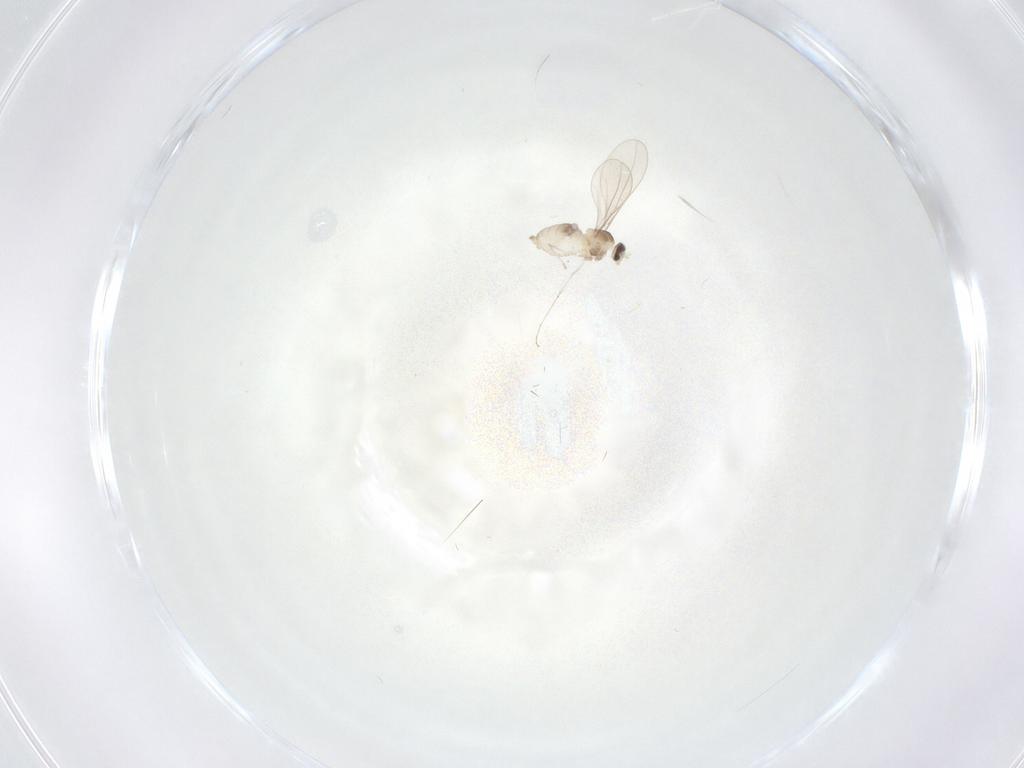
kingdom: Animalia
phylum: Arthropoda
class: Insecta
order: Diptera
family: Cecidomyiidae
